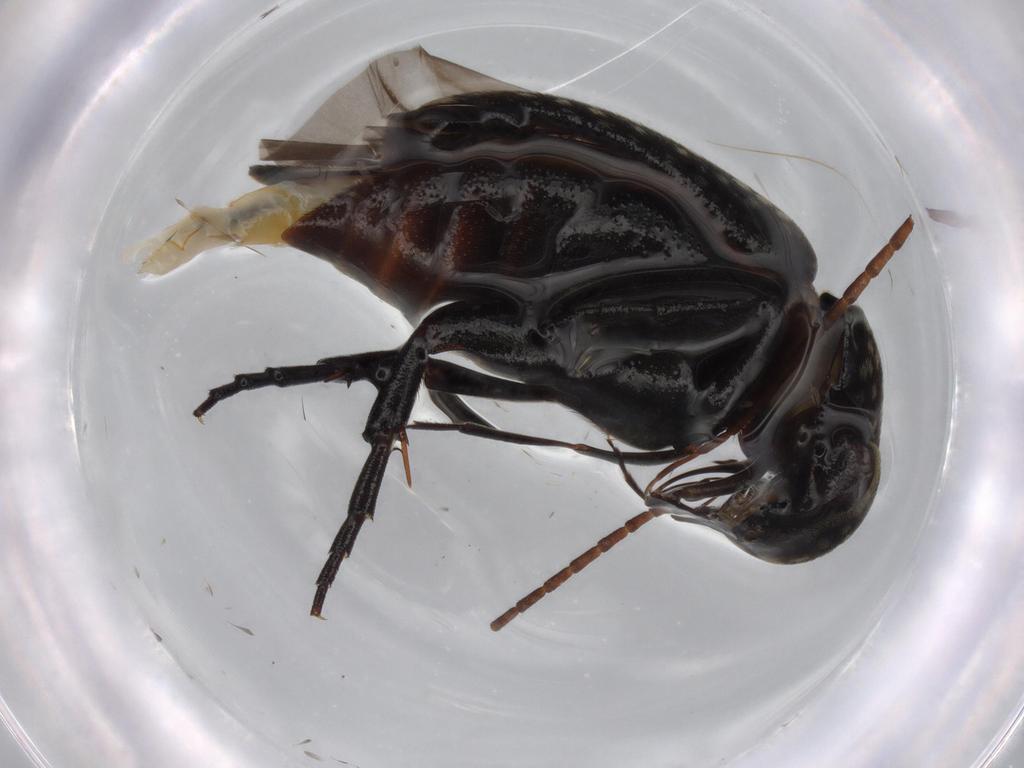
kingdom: Animalia
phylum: Arthropoda
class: Insecta
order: Coleoptera
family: Mordellidae
